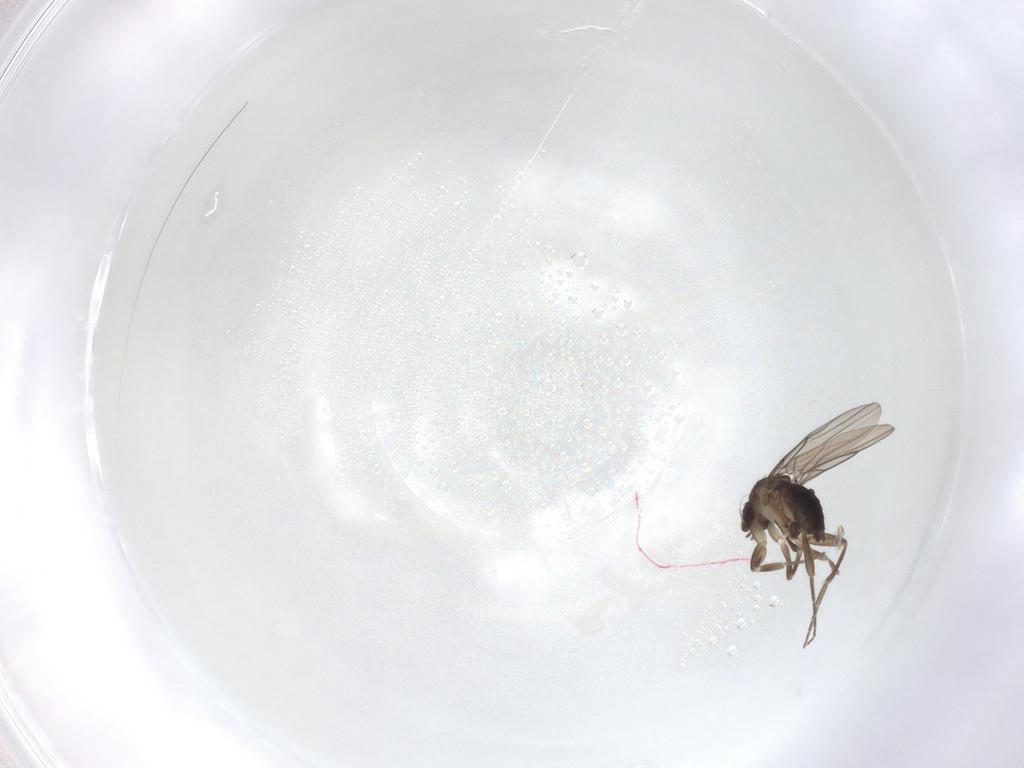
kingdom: Animalia
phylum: Arthropoda
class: Insecta
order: Diptera
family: Phoridae
